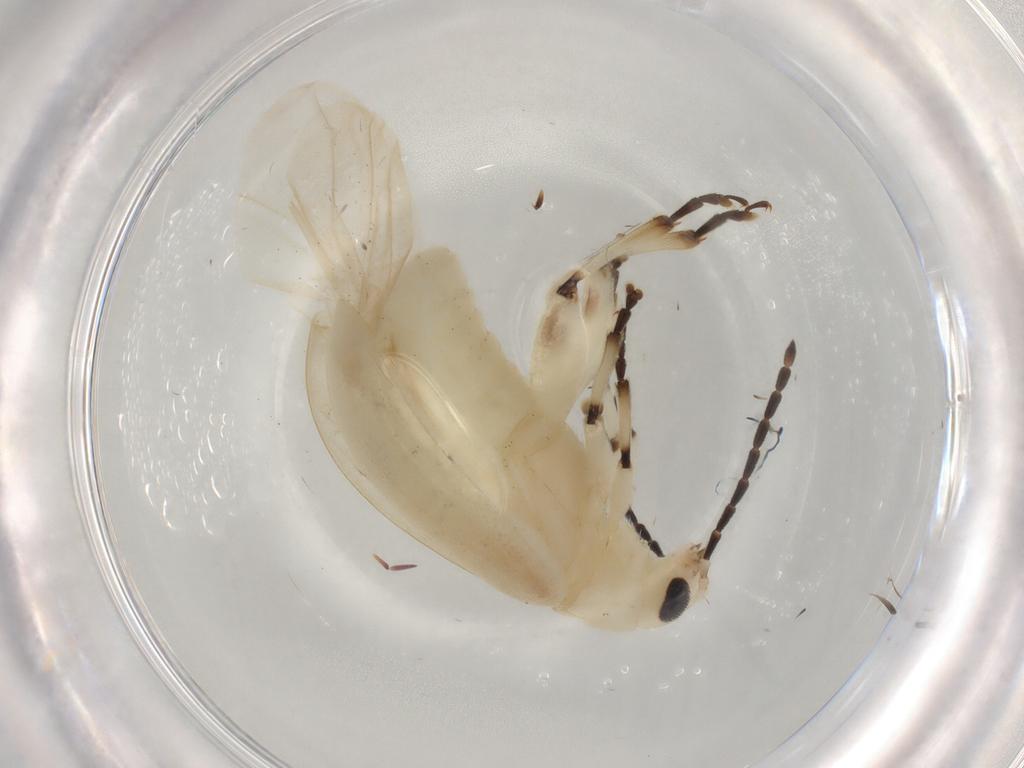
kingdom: Animalia
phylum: Arthropoda
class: Insecta
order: Coleoptera
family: Chrysomelidae
